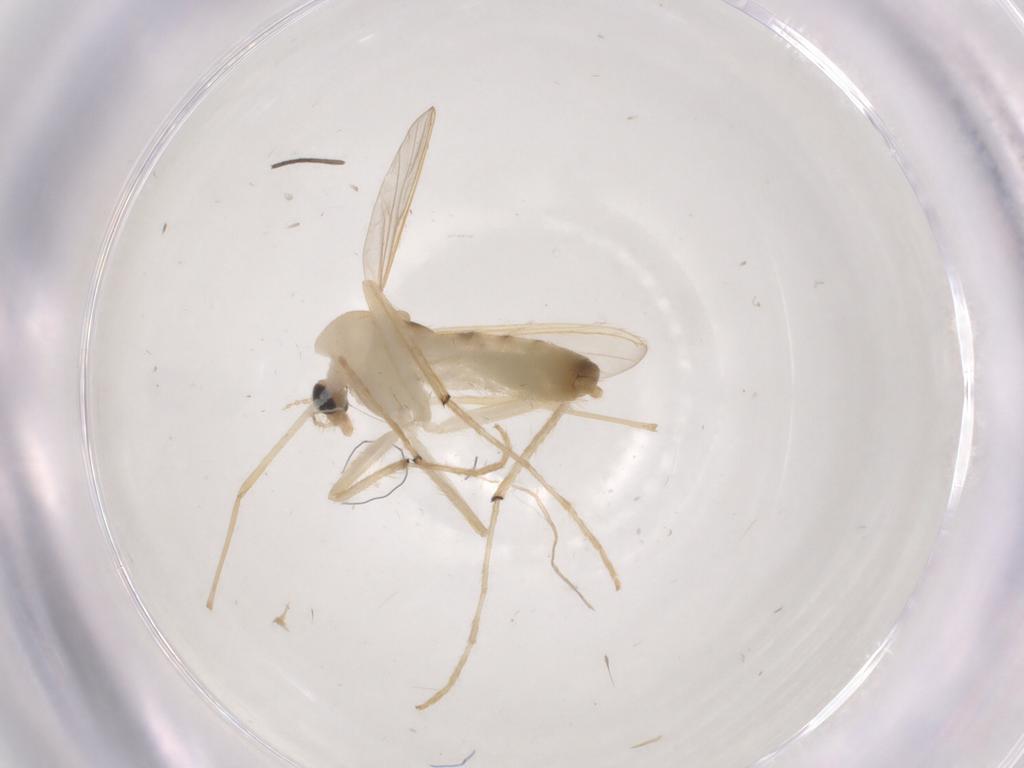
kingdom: Animalia
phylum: Arthropoda
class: Insecta
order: Diptera
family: Chironomidae
